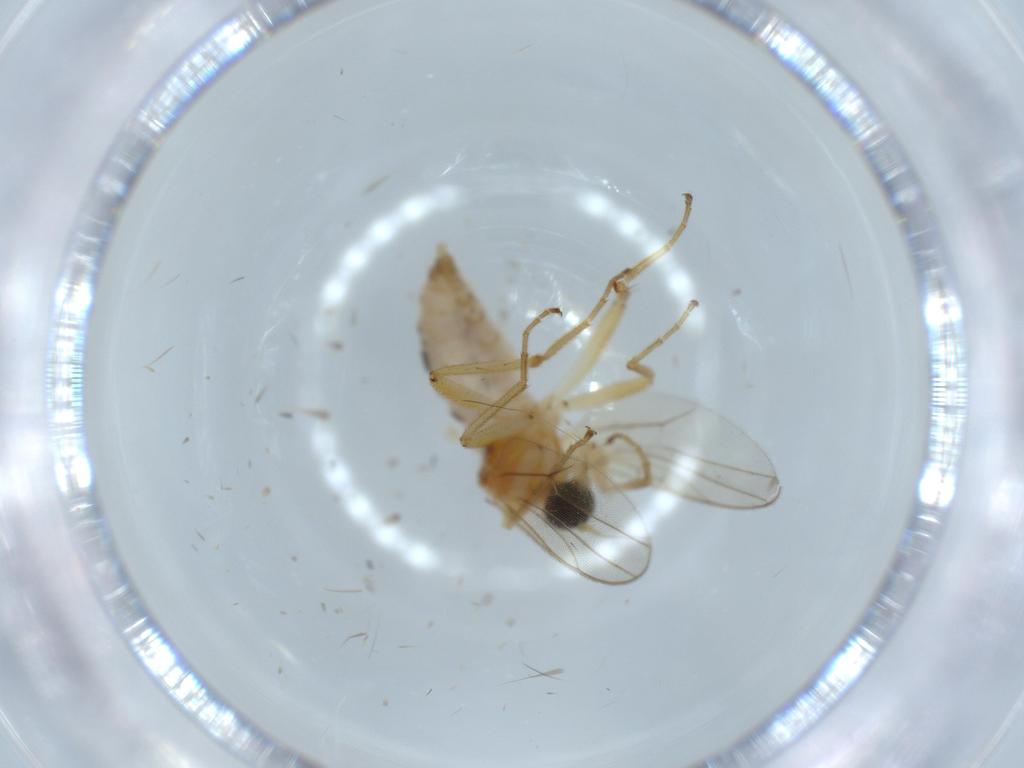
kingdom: Animalia
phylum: Arthropoda
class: Insecta
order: Diptera
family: Hybotidae
